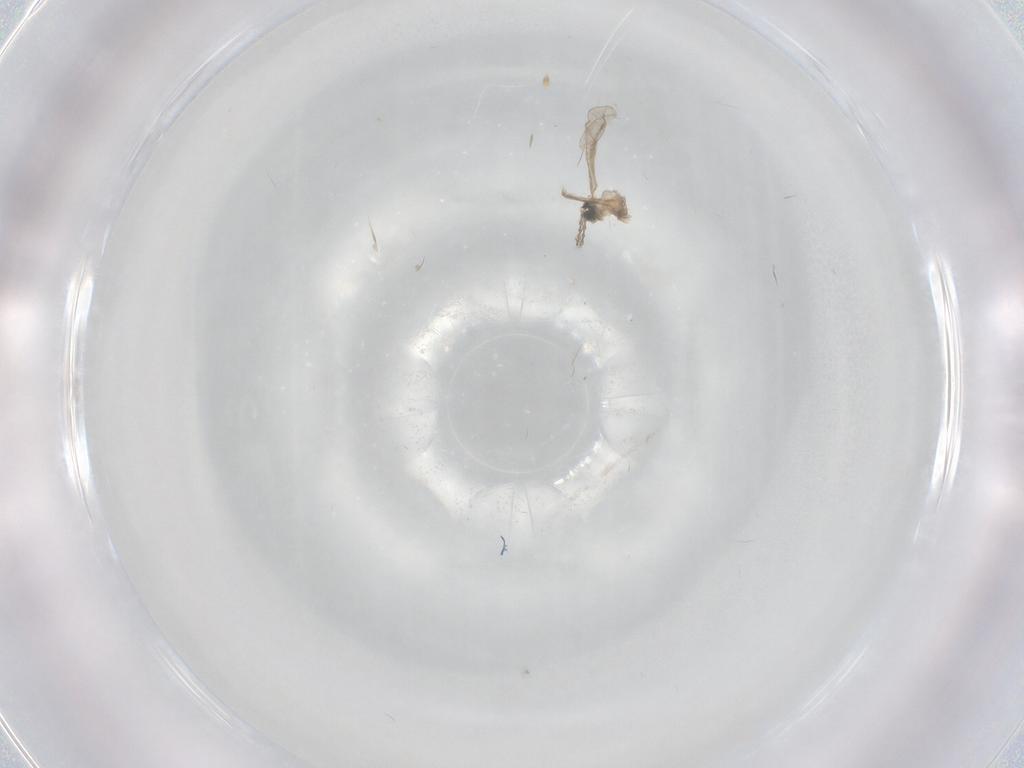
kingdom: Animalia
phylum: Arthropoda
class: Insecta
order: Diptera
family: Cecidomyiidae
